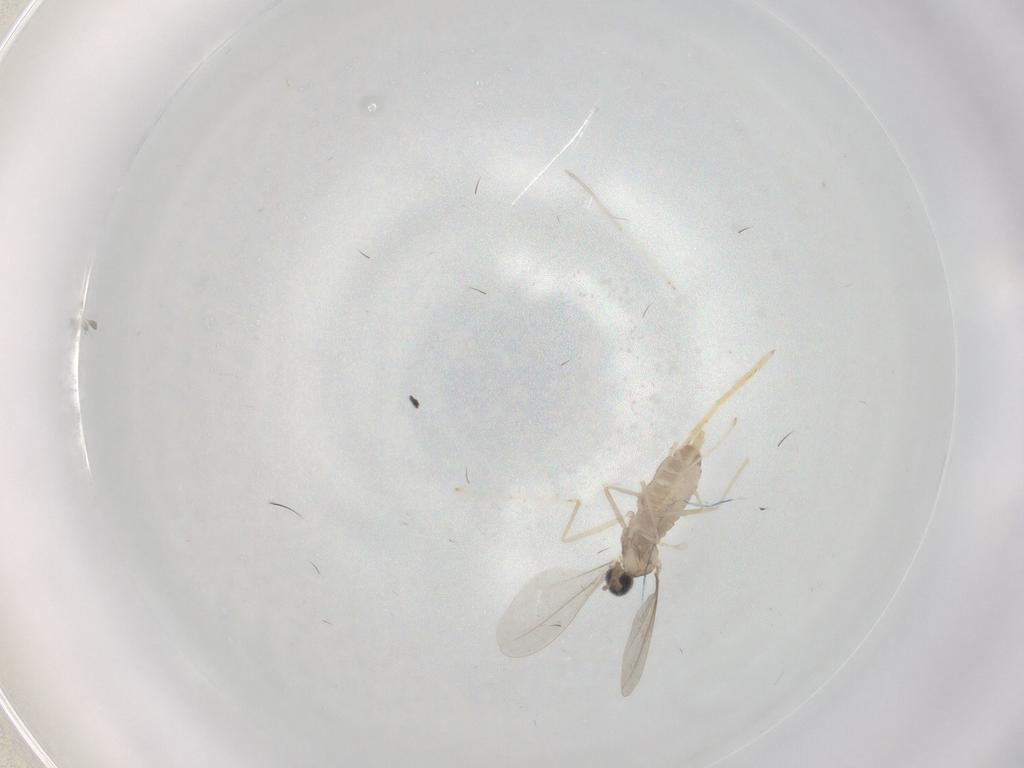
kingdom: Animalia
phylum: Arthropoda
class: Insecta
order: Diptera
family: Cecidomyiidae
